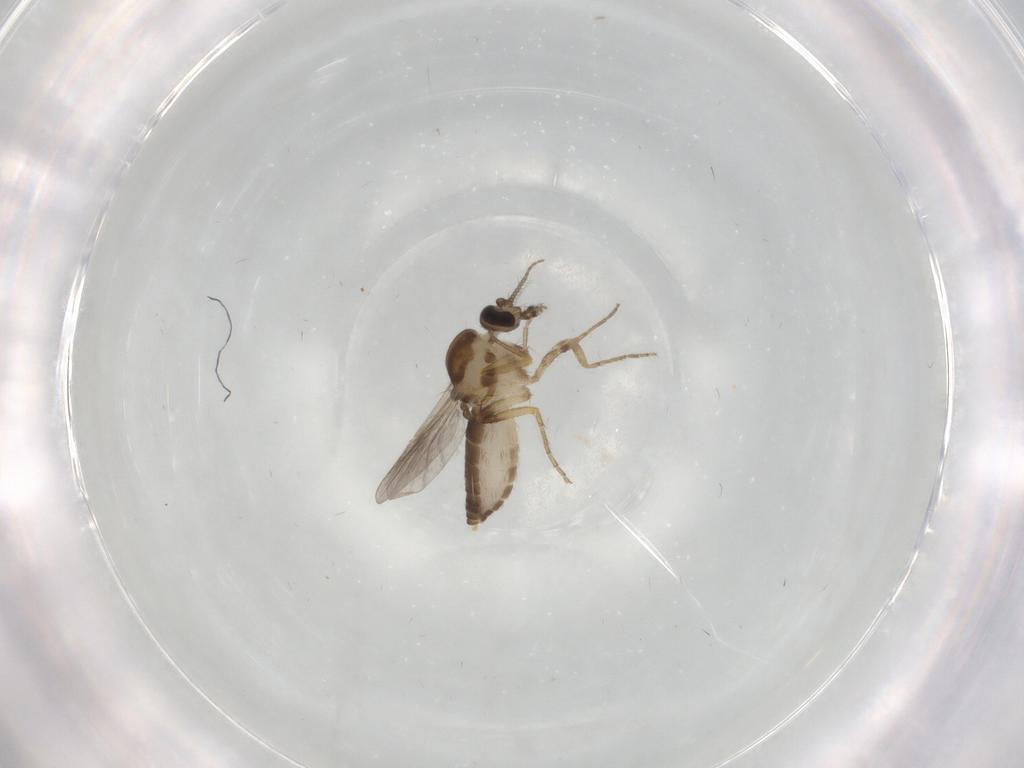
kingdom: Animalia
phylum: Arthropoda
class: Insecta
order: Diptera
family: Ceratopogonidae
